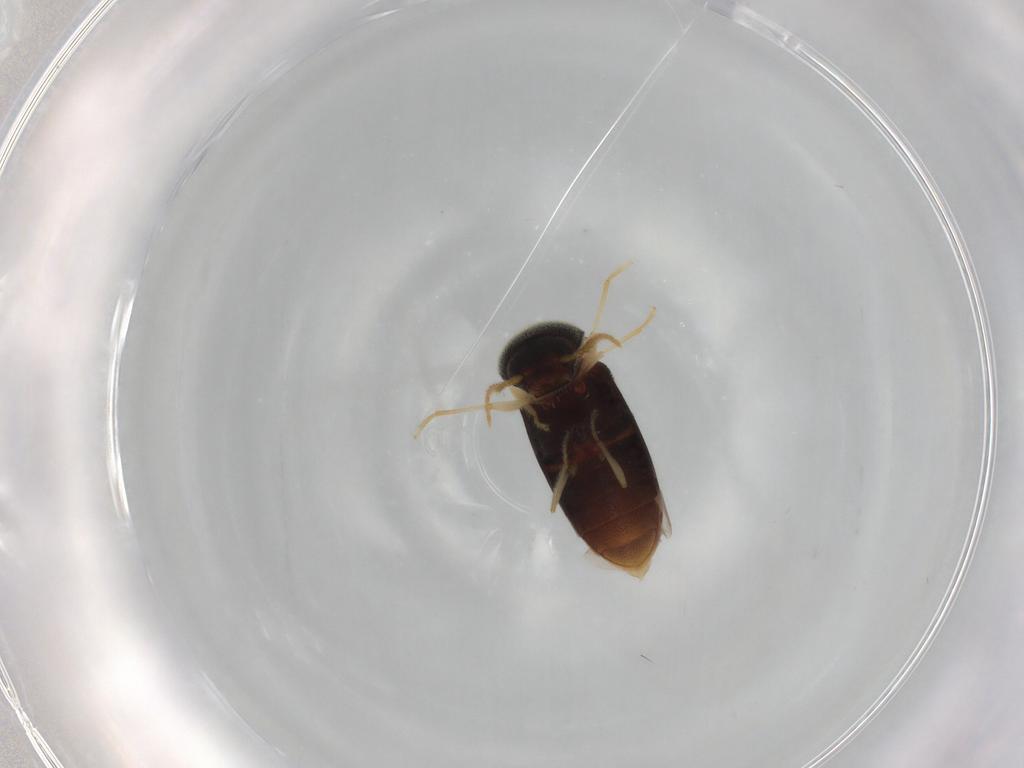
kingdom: Animalia
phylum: Arthropoda
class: Insecta
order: Coleoptera
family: Elateridae
